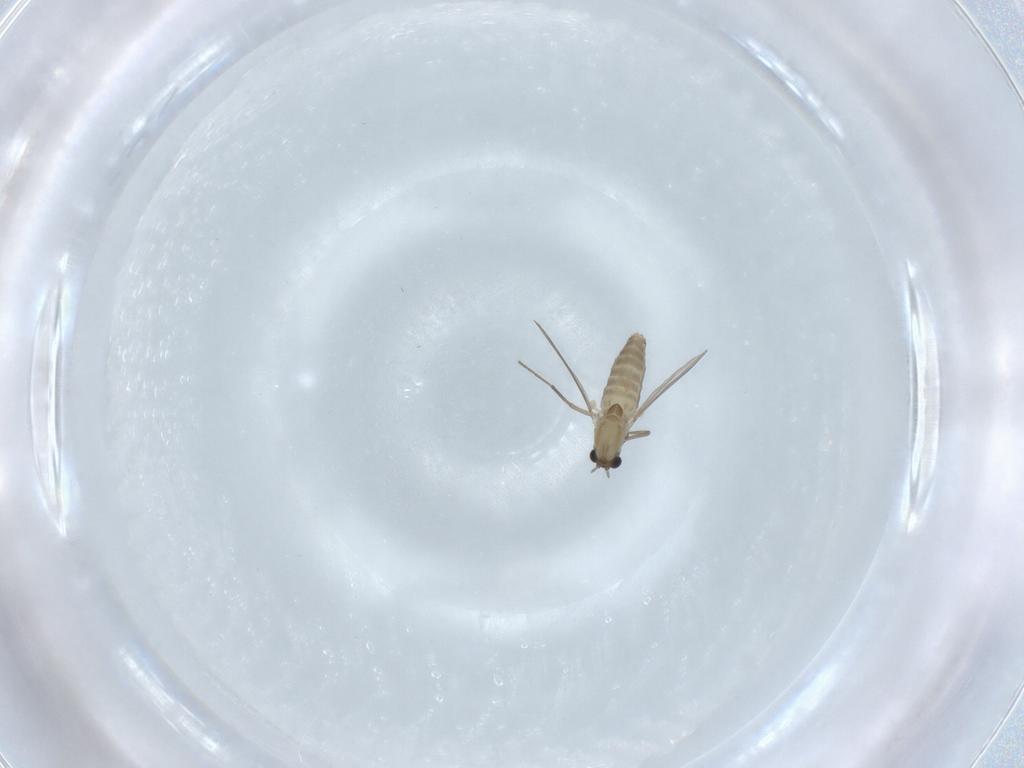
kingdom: Animalia
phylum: Arthropoda
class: Insecta
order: Diptera
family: Chironomidae
